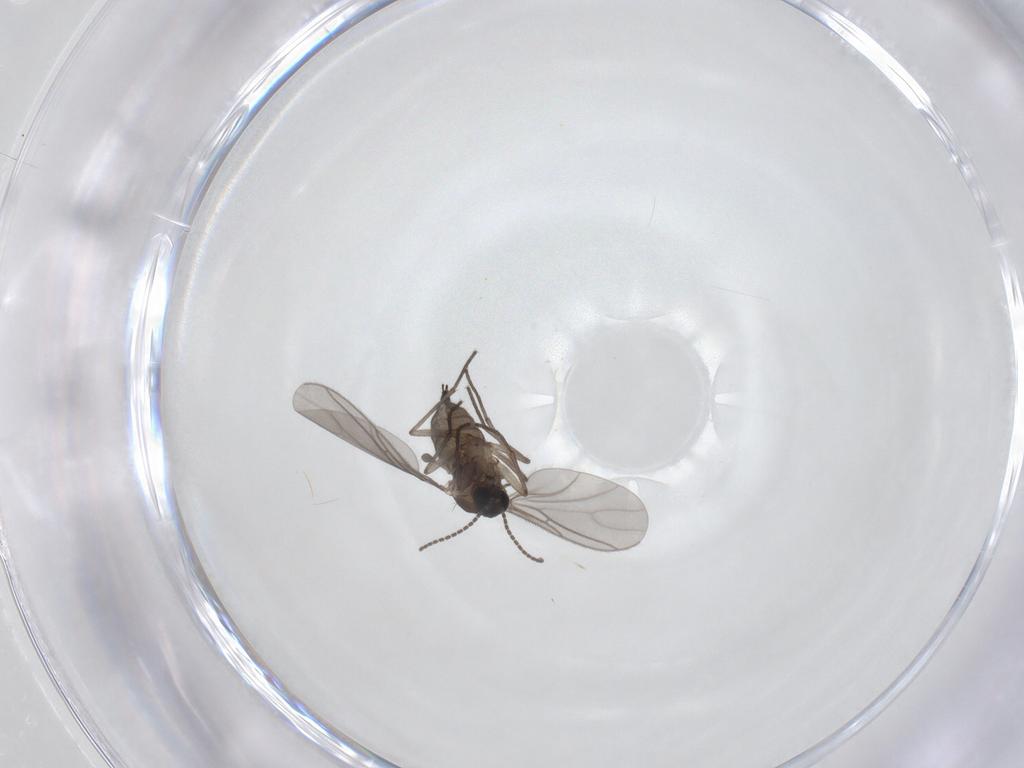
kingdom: Animalia
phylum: Arthropoda
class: Insecta
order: Diptera
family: Sciaridae
